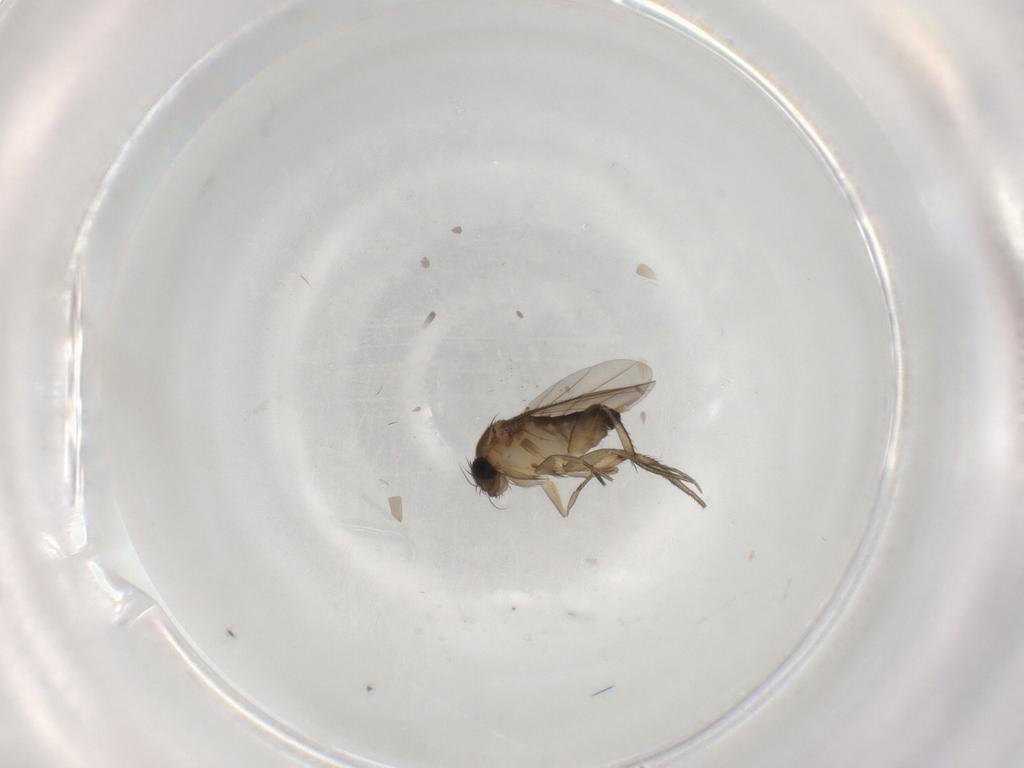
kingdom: Animalia
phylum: Arthropoda
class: Insecta
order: Diptera
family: Phoridae
